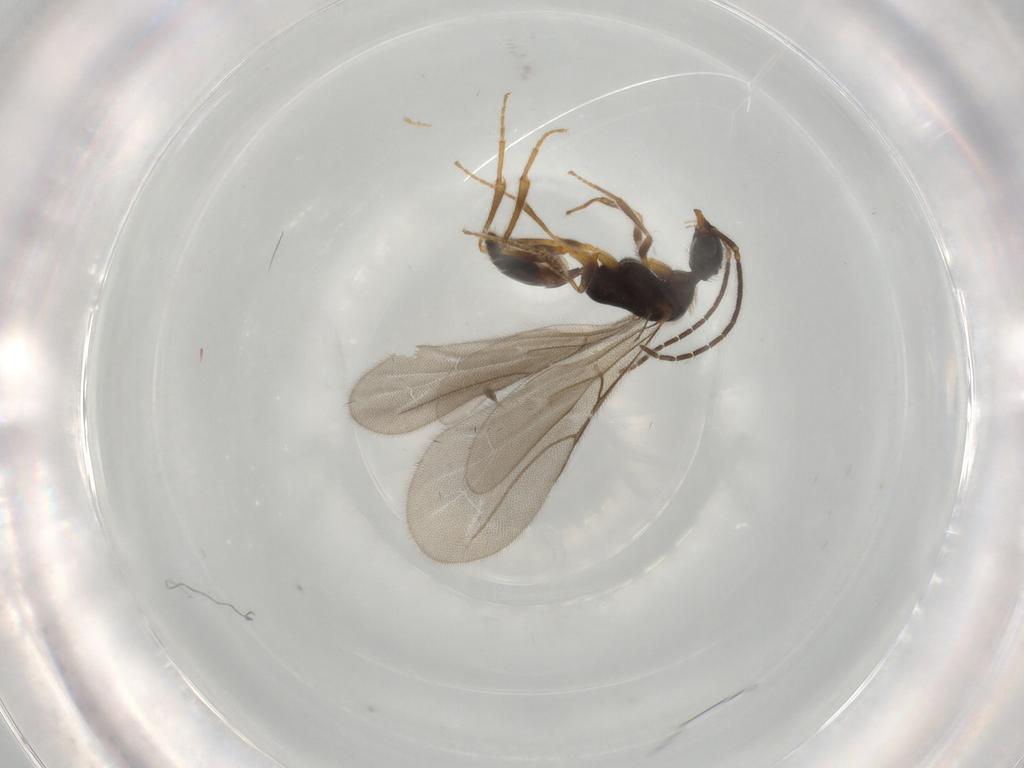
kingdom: Animalia
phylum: Arthropoda
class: Insecta
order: Hymenoptera
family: Bethylidae
